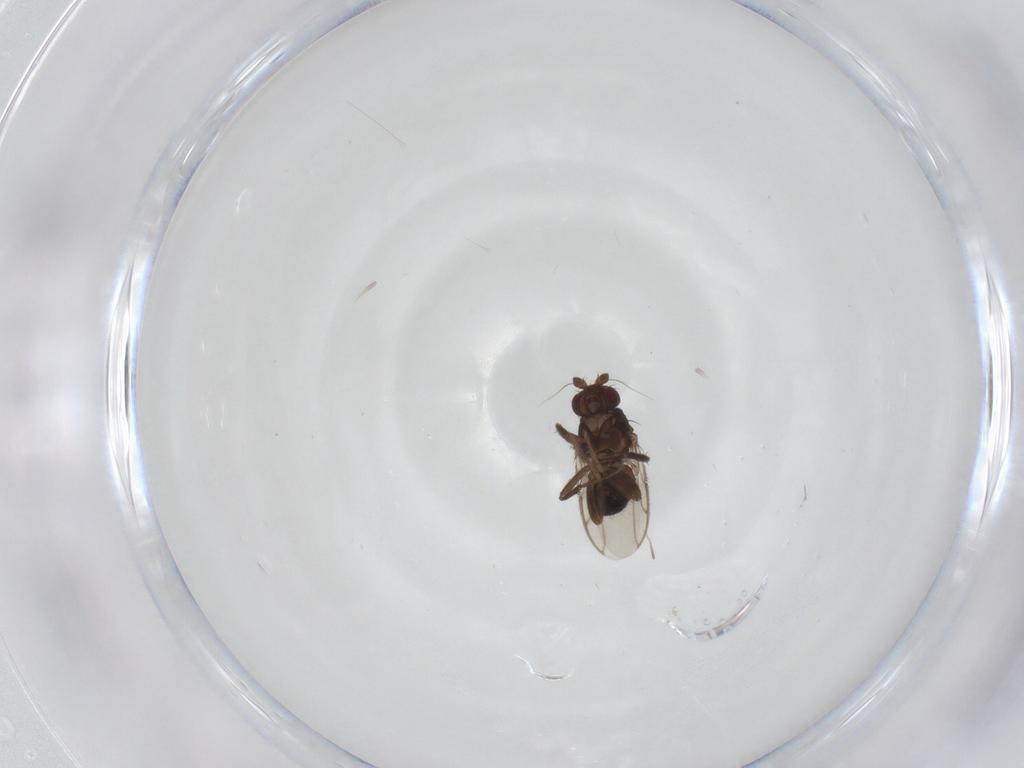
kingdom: Animalia
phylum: Arthropoda
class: Insecta
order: Diptera
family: Sphaeroceridae
